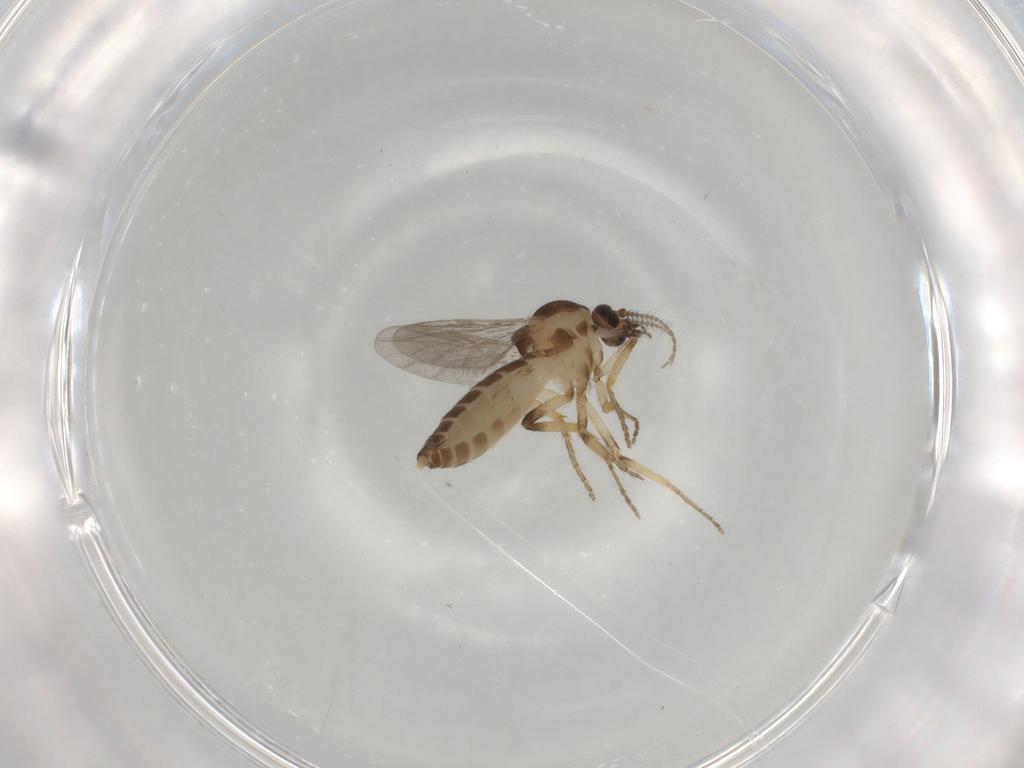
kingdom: Animalia
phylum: Arthropoda
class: Insecta
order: Diptera
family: Ceratopogonidae
